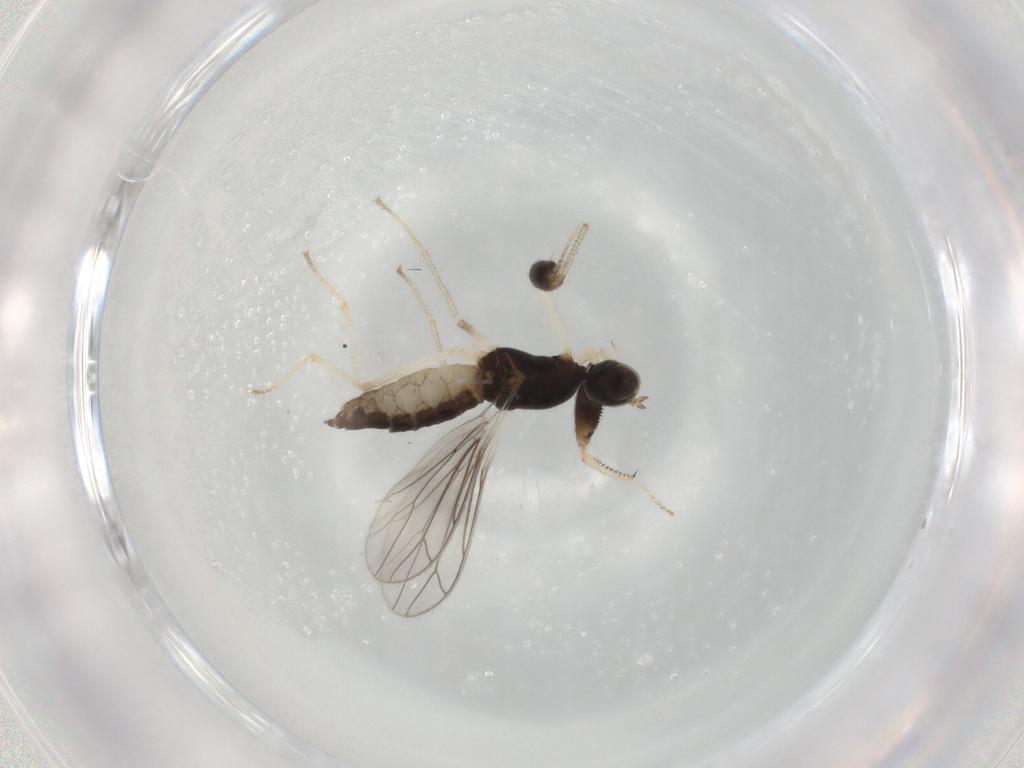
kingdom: Animalia
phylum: Arthropoda
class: Insecta
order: Diptera
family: Empididae
